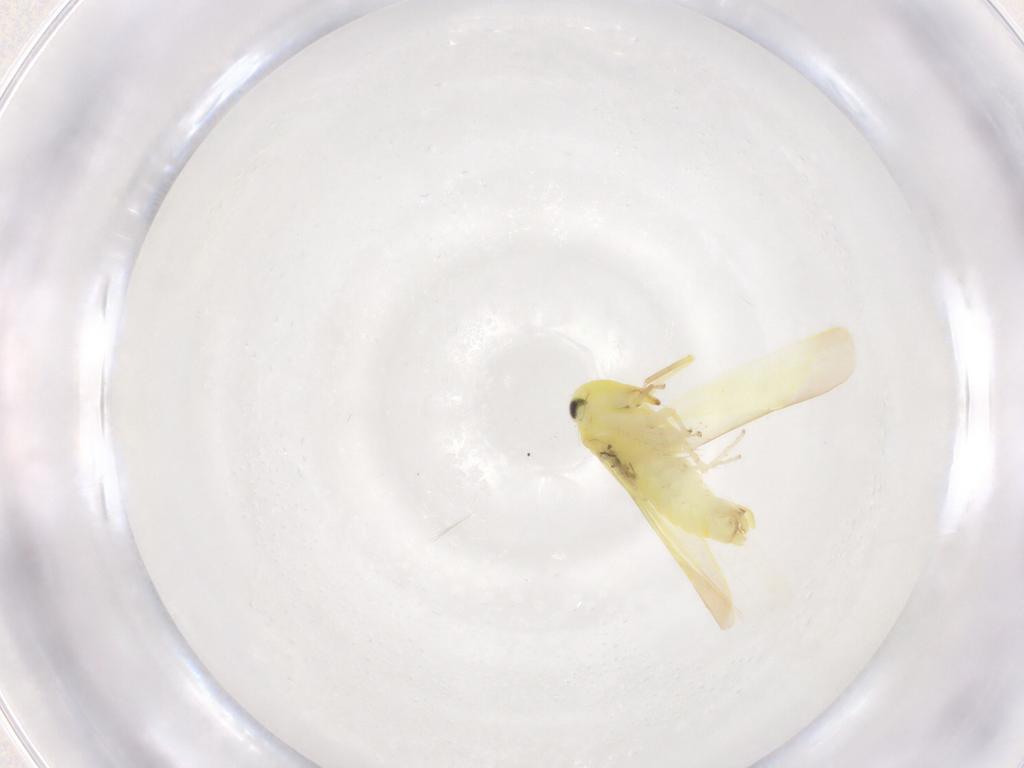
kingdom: Animalia
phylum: Arthropoda
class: Insecta
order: Hemiptera
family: Cicadellidae
